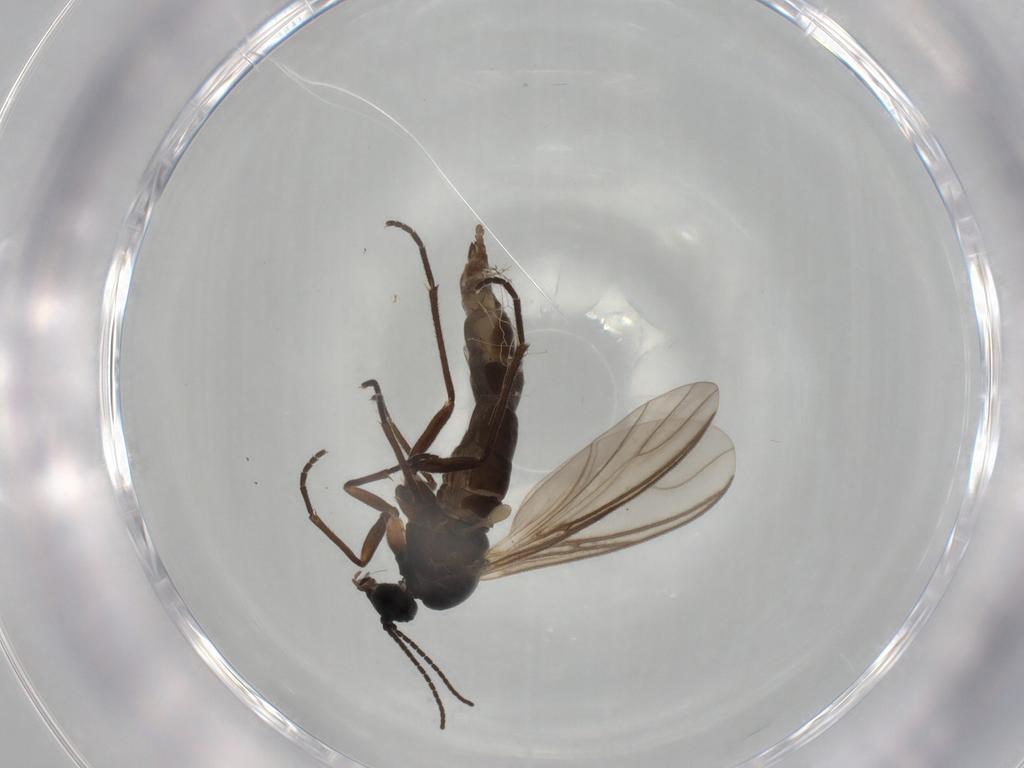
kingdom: Animalia
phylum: Arthropoda
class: Insecta
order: Diptera
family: Culicidae
